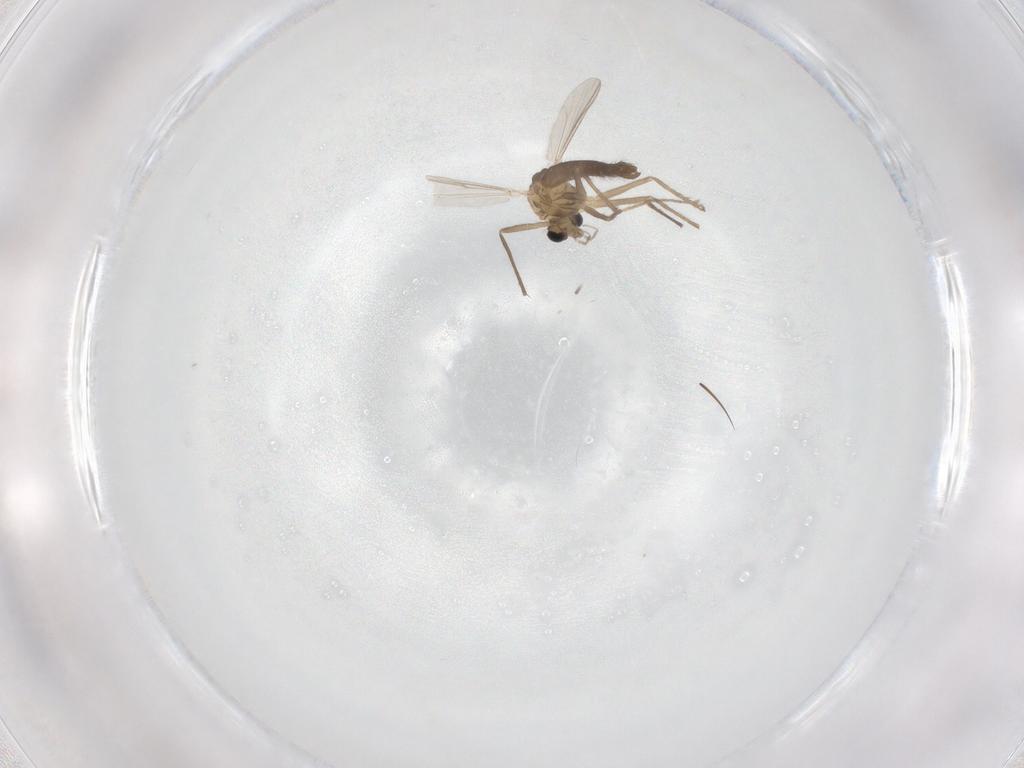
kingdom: Animalia
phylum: Arthropoda
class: Insecta
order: Diptera
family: Chironomidae
